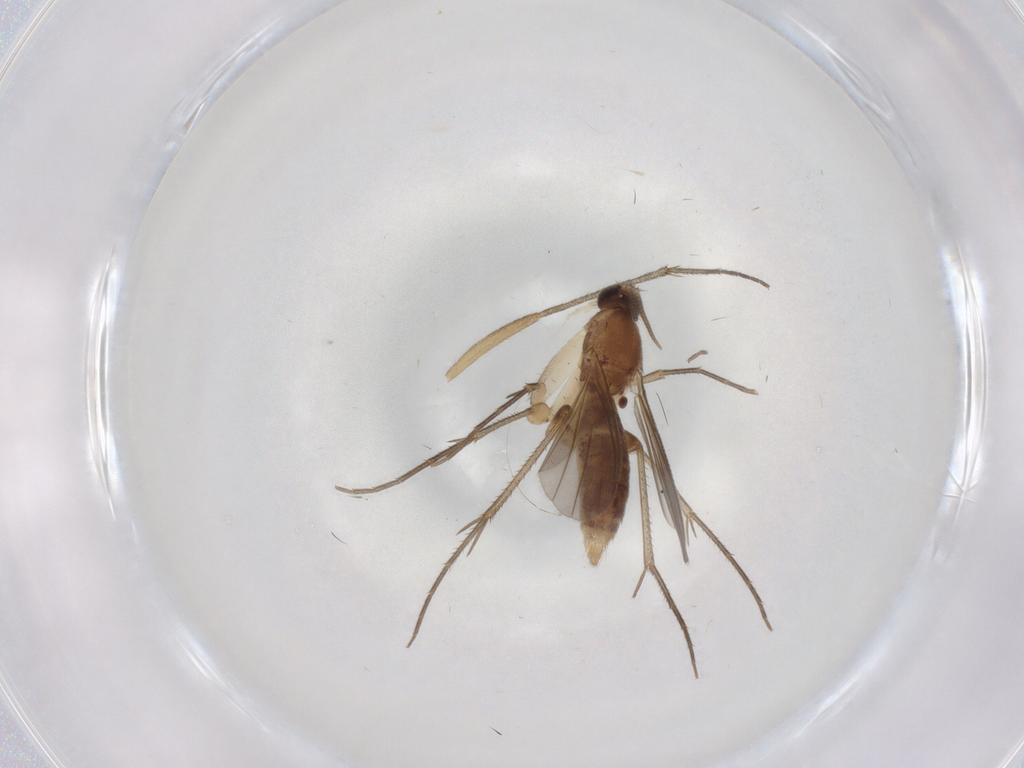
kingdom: Animalia
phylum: Arthropoda
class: Insecta
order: Diptera
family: Mycetophilidae
